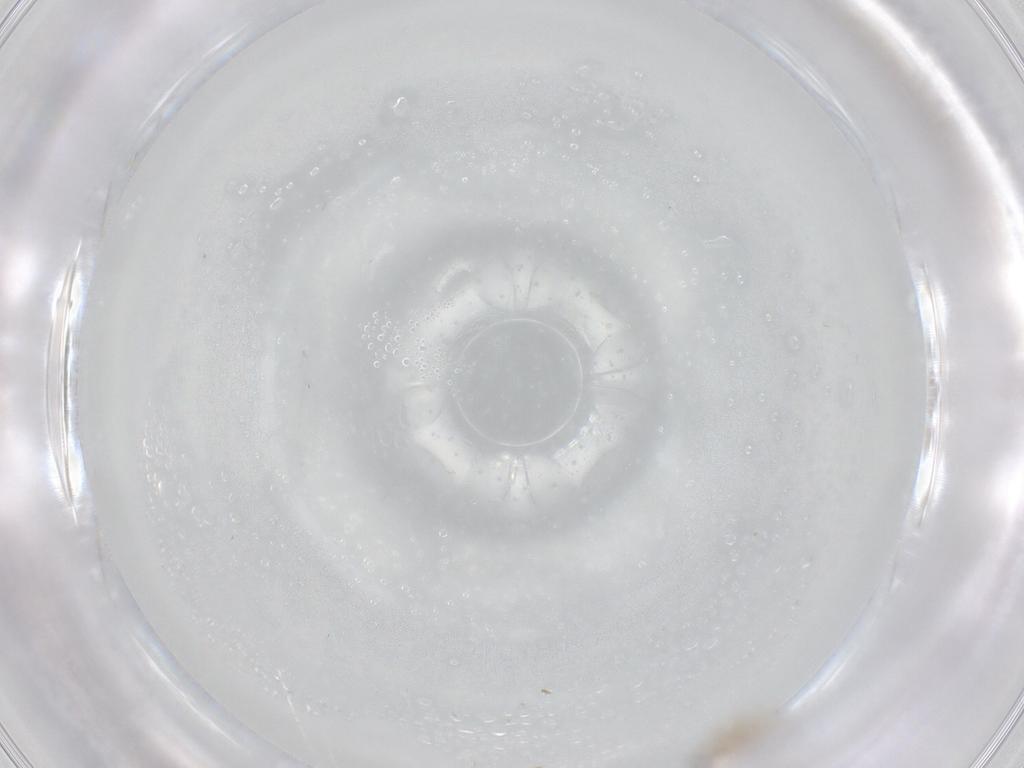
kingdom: Animalia
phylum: Arthropoda
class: Insecta
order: Diptera
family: Cecidomyiidae
